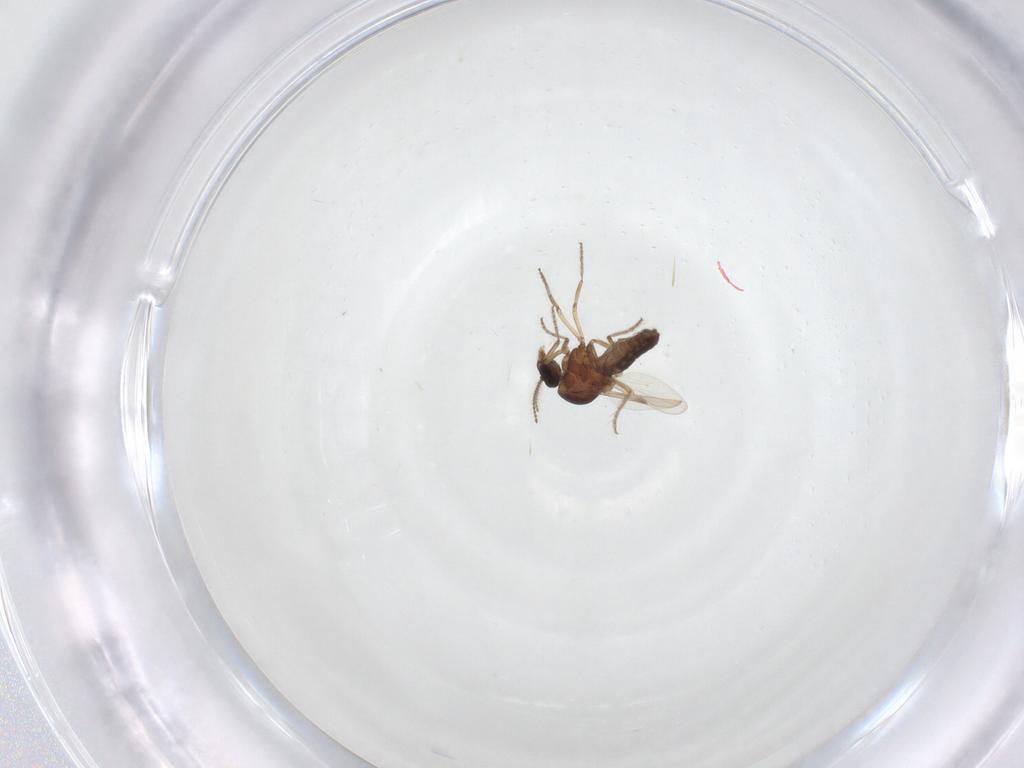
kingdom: Animalia
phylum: Arthropoda
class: Insecta
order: Diptera
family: Ceratopogonidae
